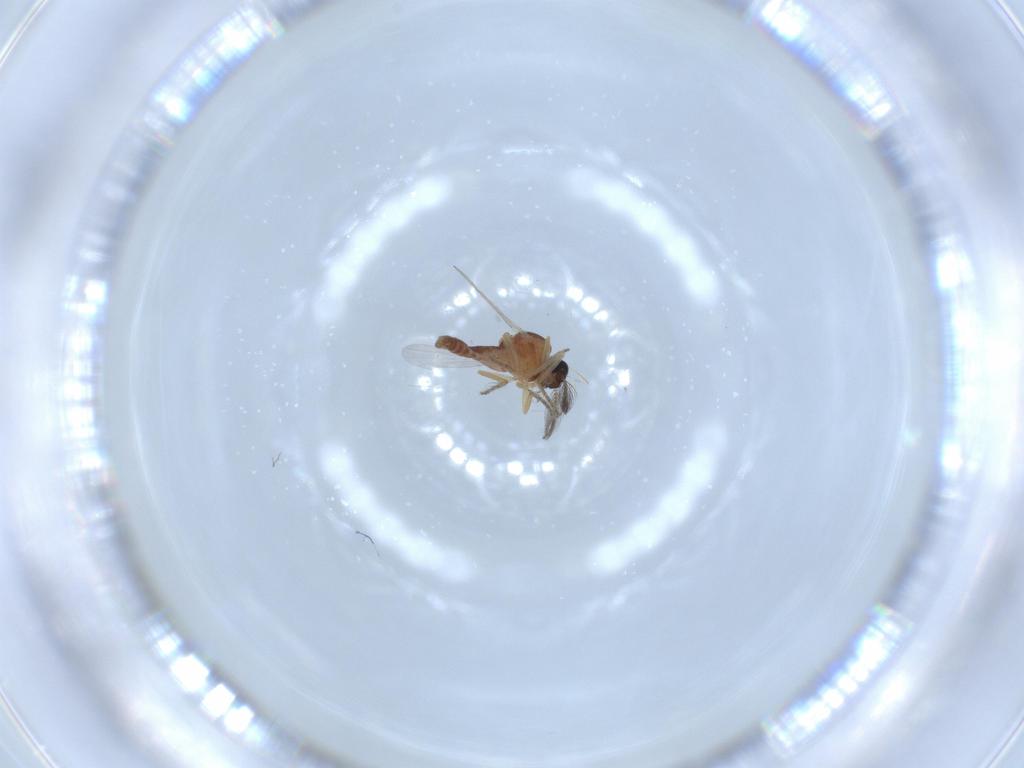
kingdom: Animalia
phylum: Arthropoda
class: Insecta
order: Diptera
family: Ceratopogonidae
